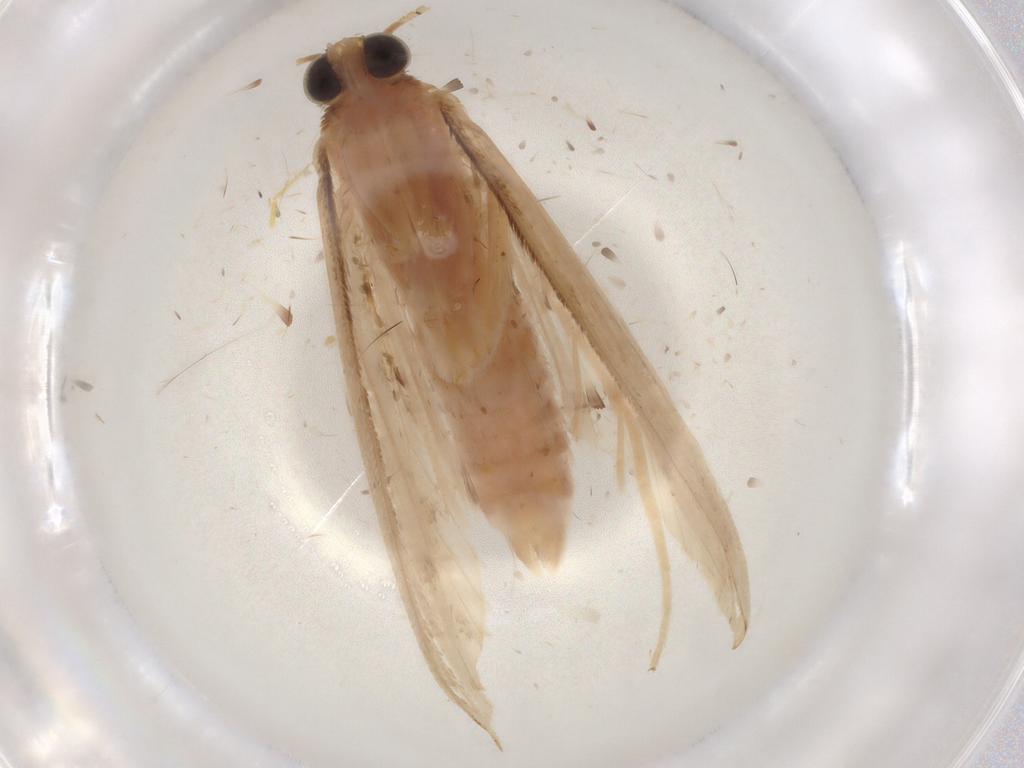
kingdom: Animalia
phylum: Arthropoda
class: Insecta
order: Lepidoptera
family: Crambidae
